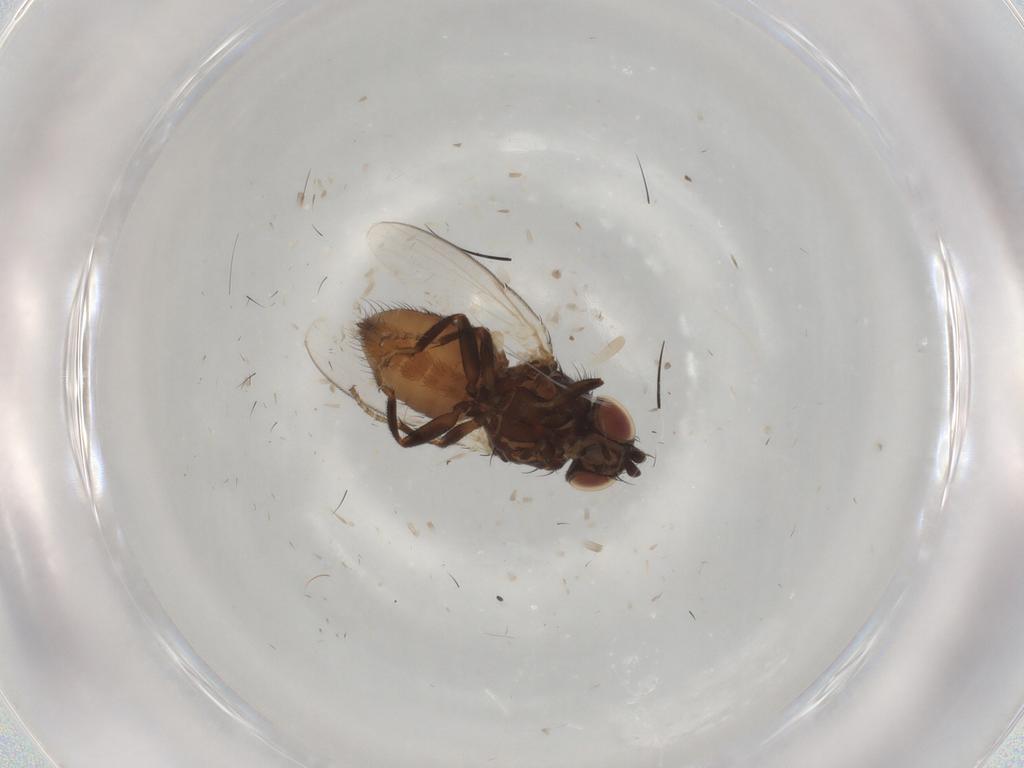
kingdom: Animalia
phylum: Arthropoda
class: Insecta
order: Diptera
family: Milichiidae
